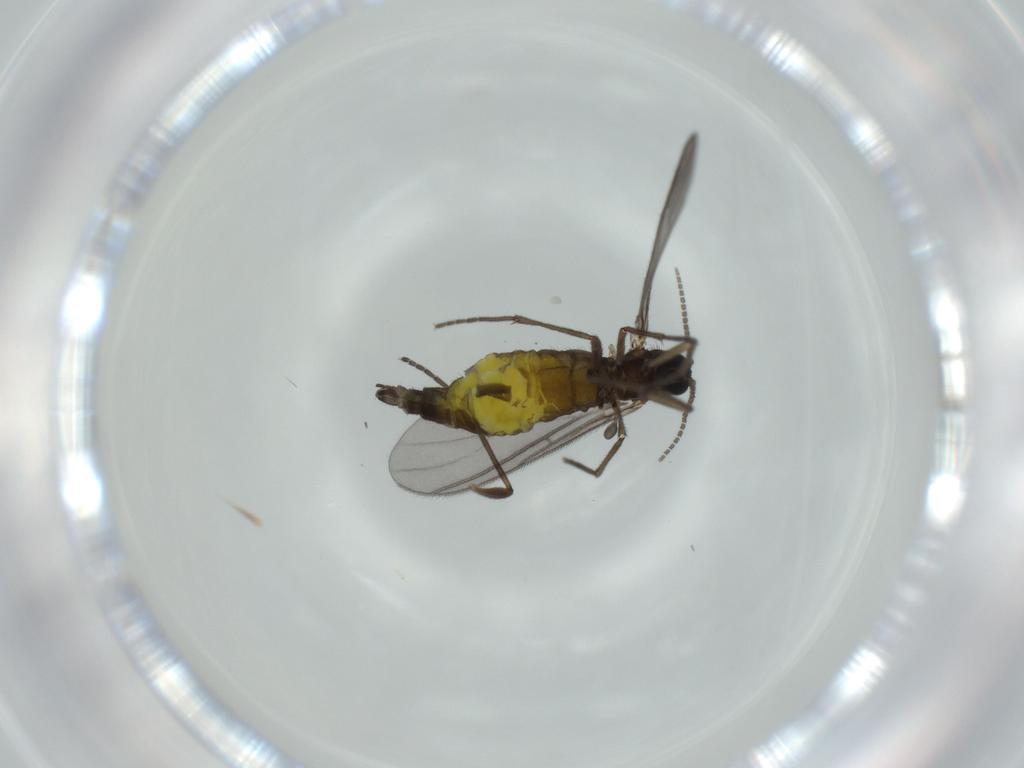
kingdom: Animalia
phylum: Arthropoda
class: Insecta
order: Diptera
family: Sciaridae
